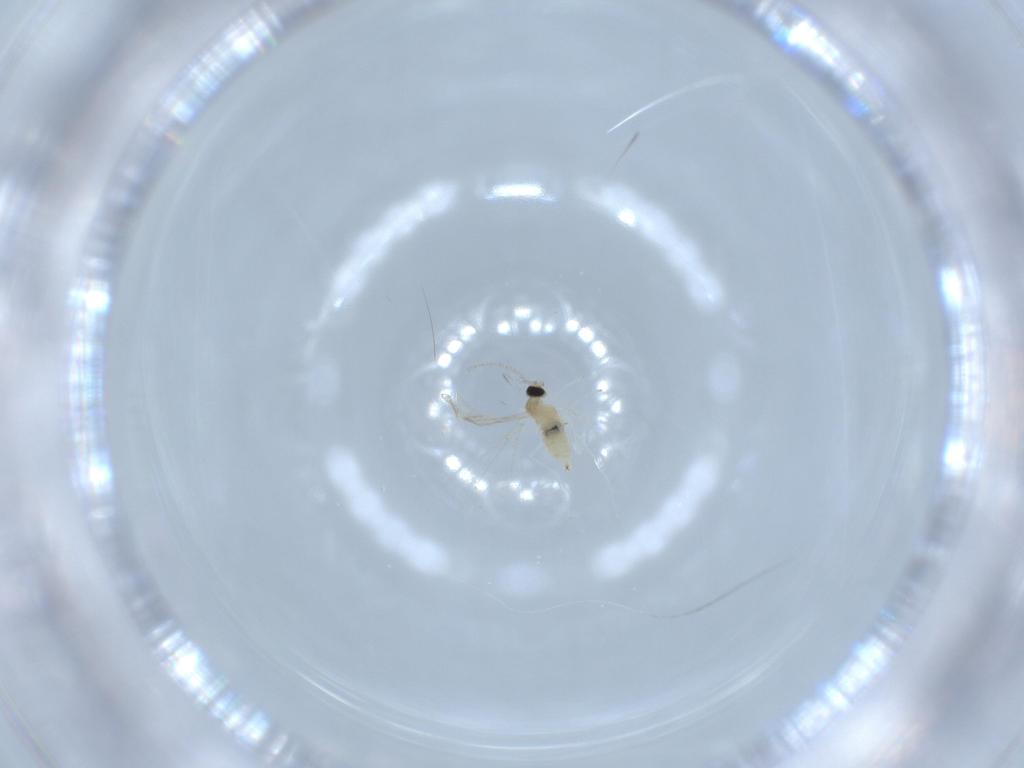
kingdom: Animalia
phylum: Arthropoda
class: Insecta
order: Diptera
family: Cecidomyiidae
